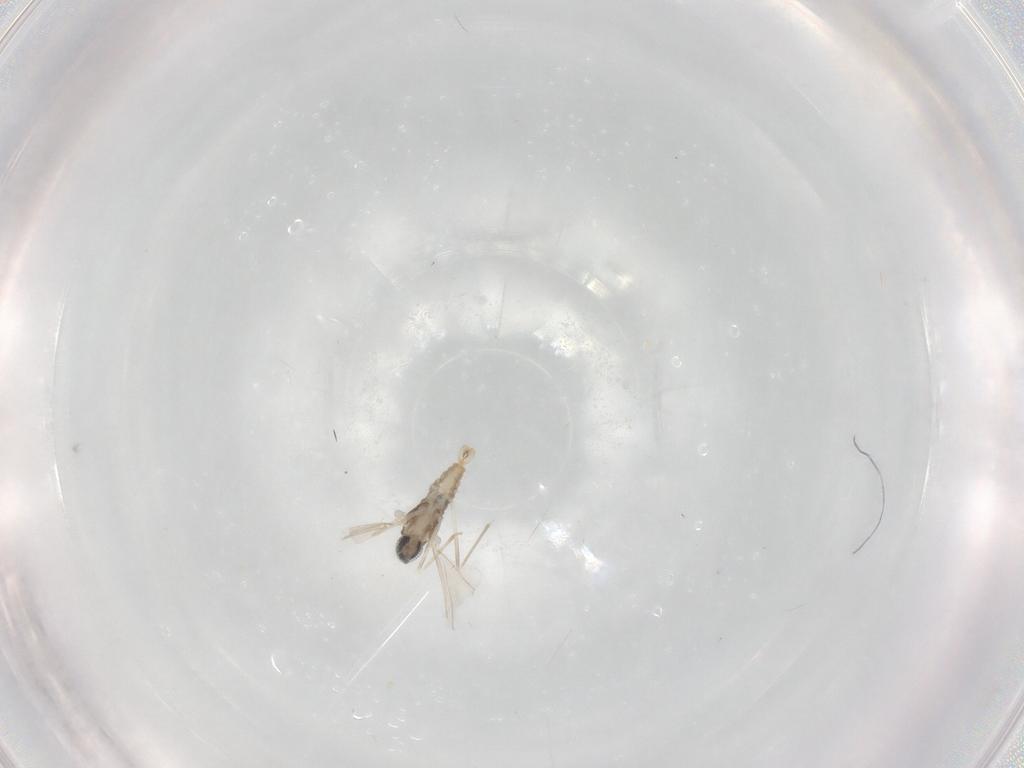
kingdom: Animalia
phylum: Arthropoda
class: Insecta
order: Diptera
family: Cecidomyiidae
